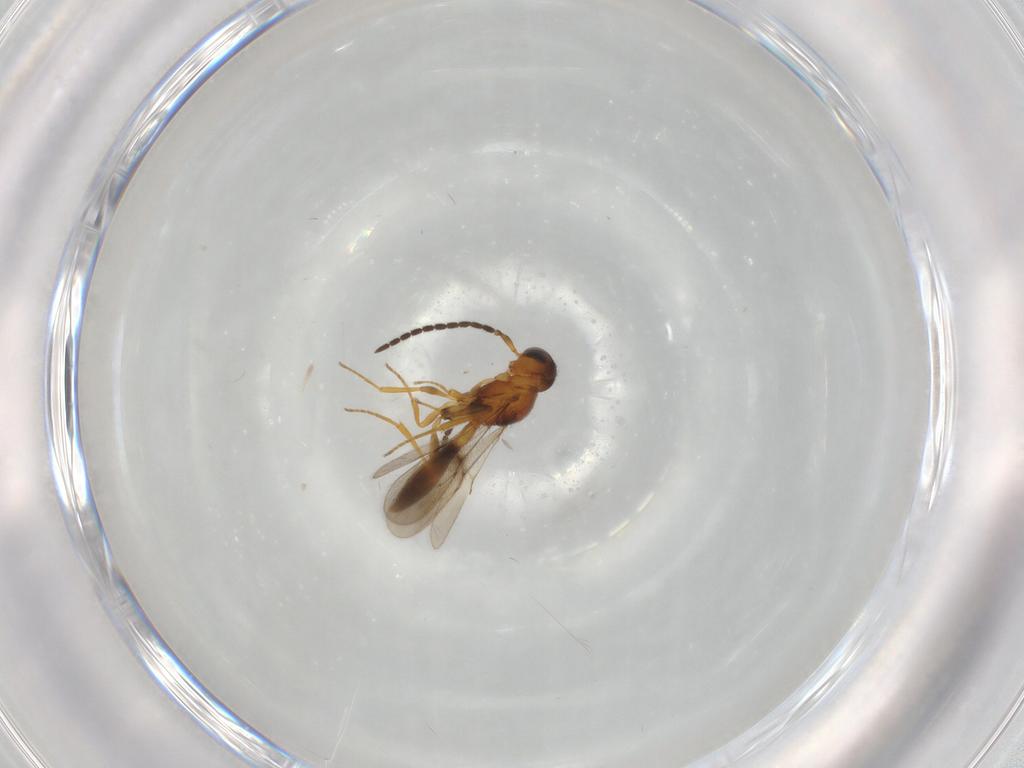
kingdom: Animalia
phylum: Arthropoda
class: Insecta
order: Hymenoptera
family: Scelionidae
